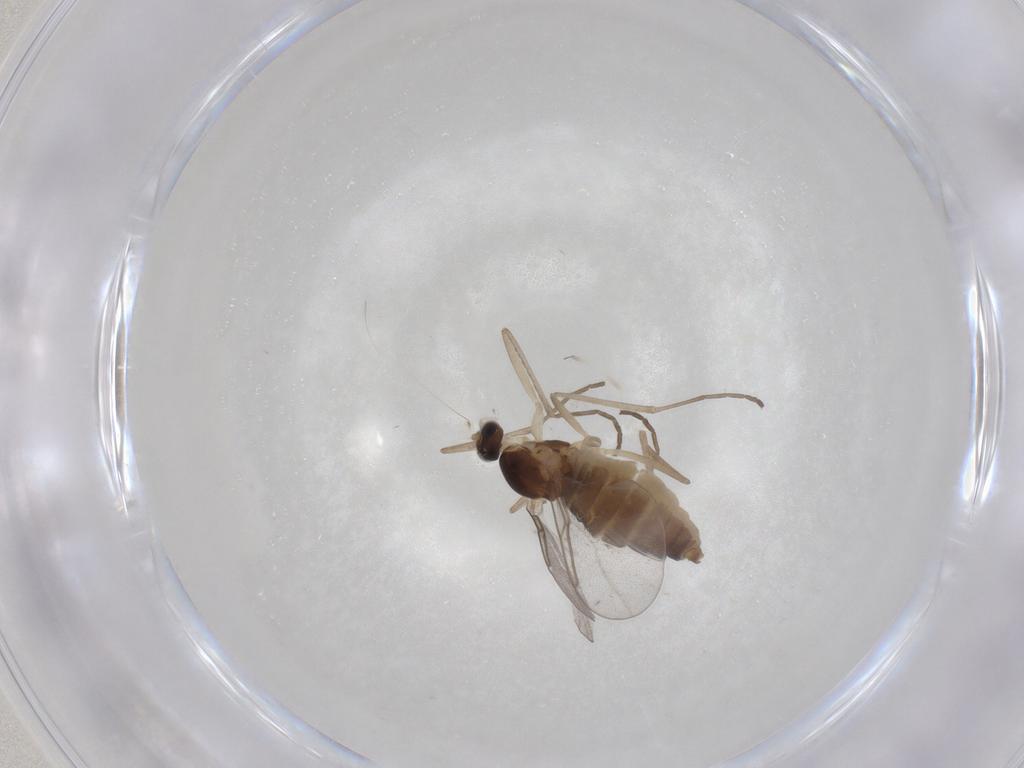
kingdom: Animalia
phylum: Arthropoda
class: Insecta
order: Diptera
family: Cecidomyiidae
